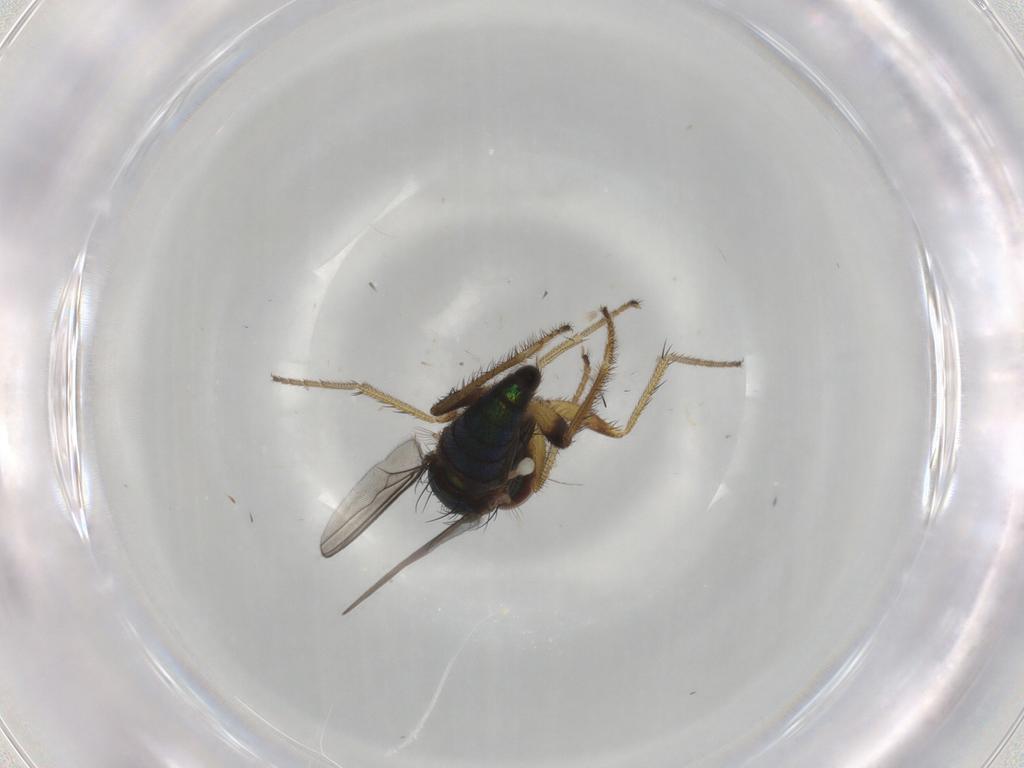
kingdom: Animalia
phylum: Arthropoda
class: Insecta
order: Diptera
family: Dolichopodidae
